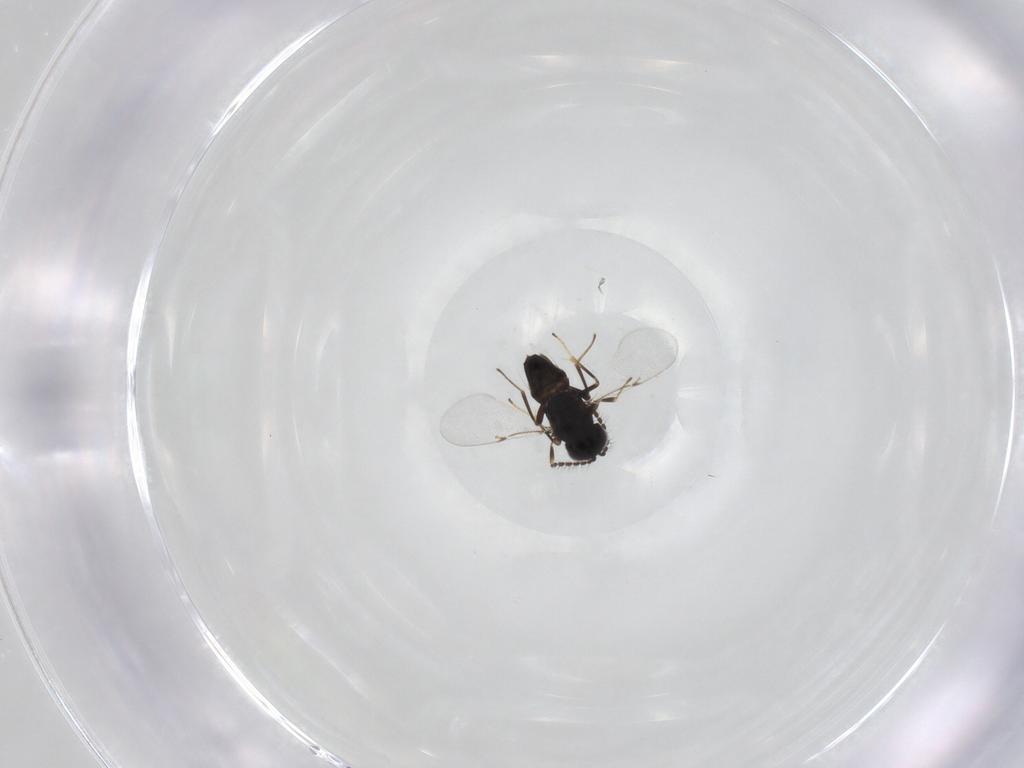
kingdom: Animalia
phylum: Arthropoda
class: Insecta
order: Hymenoptera
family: Encyrtidae
